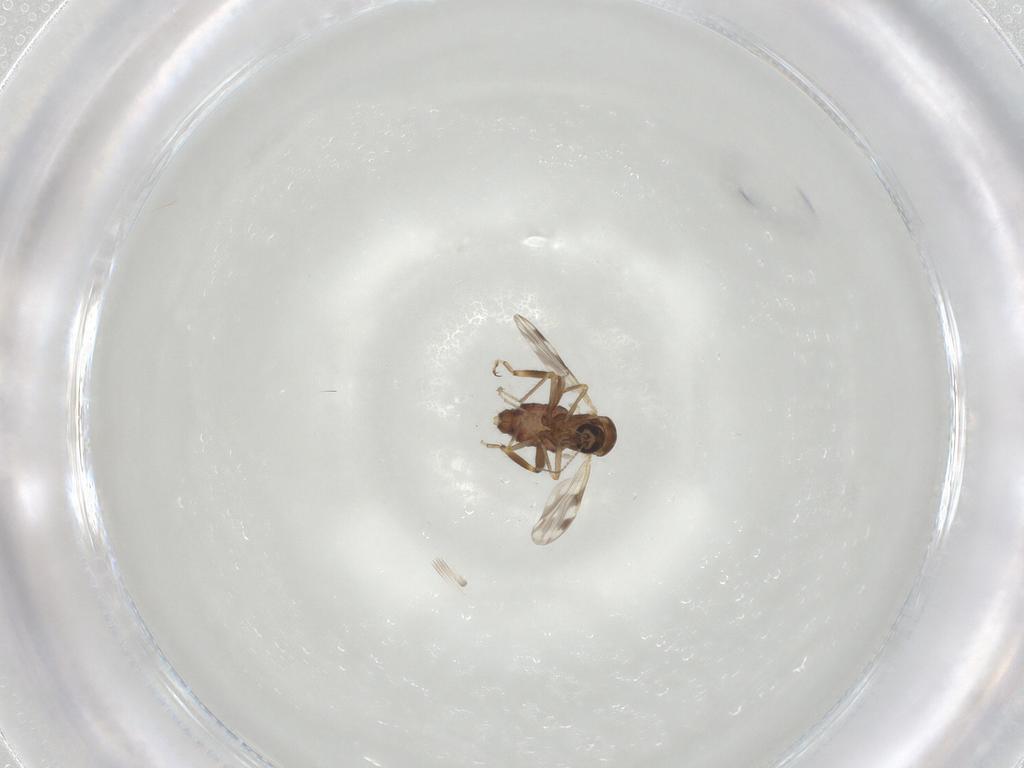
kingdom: Animalia
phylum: Arthropoda
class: Insecta
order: Diptera
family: Ceratopogonidae
